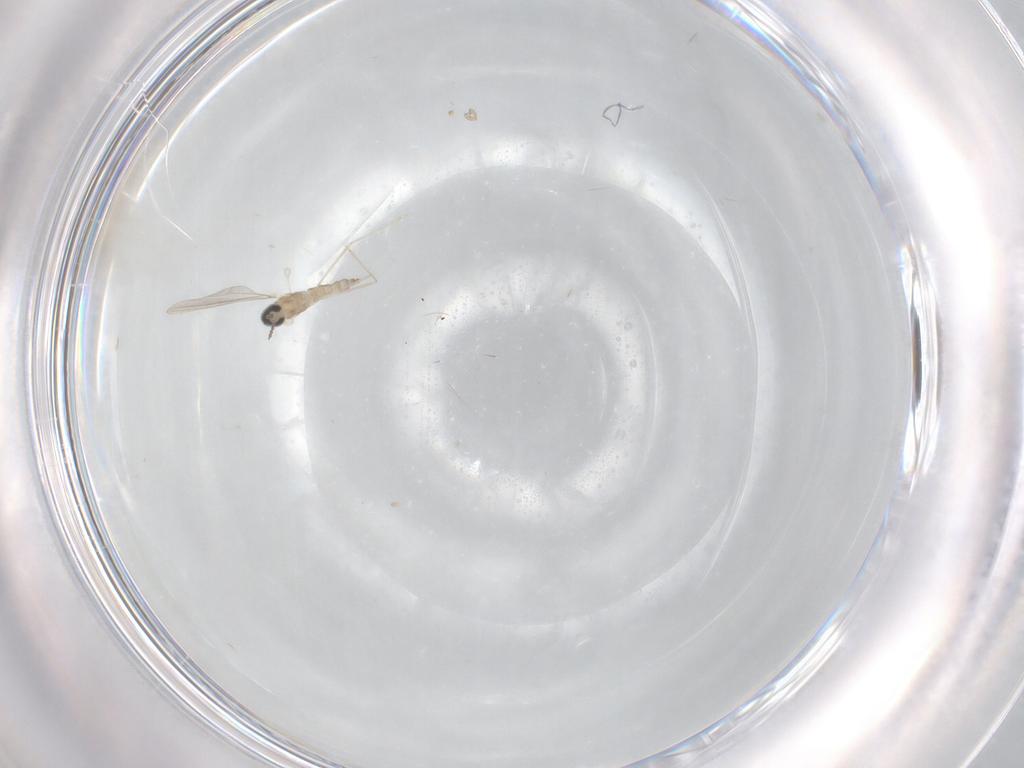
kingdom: Animalia
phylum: Arthropoda
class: Insecta
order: Diptera
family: Cecidomyiidae
